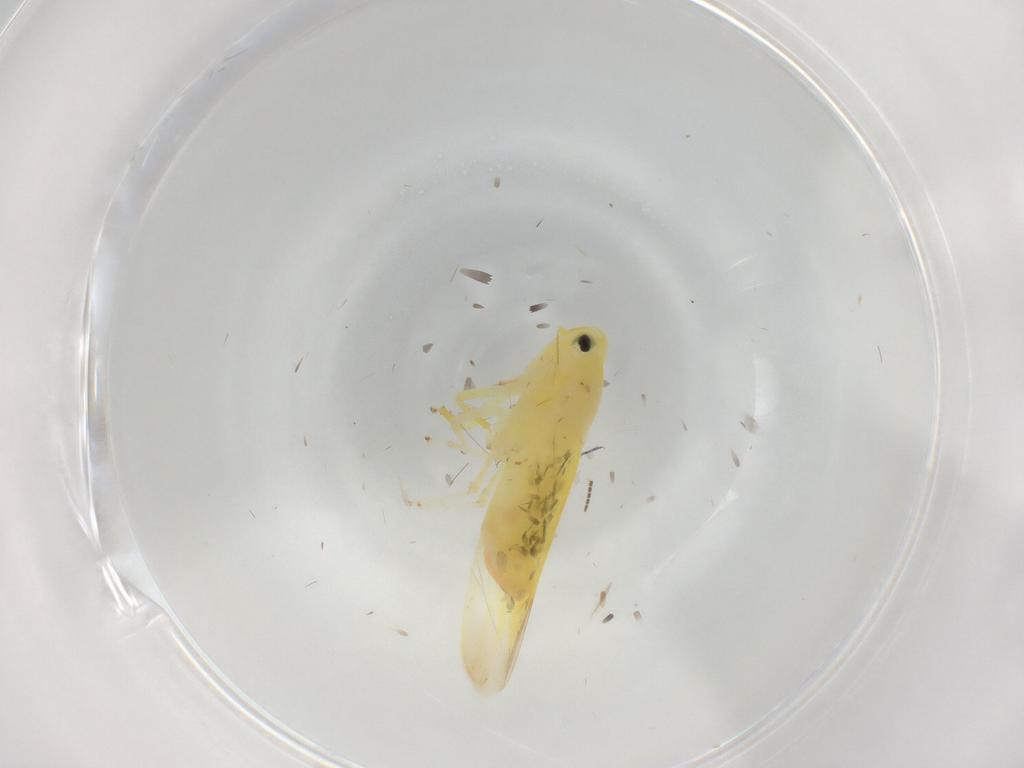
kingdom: Animalia
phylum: Arthropoda
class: Insecta
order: Hemiptera
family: Cicadellidae
